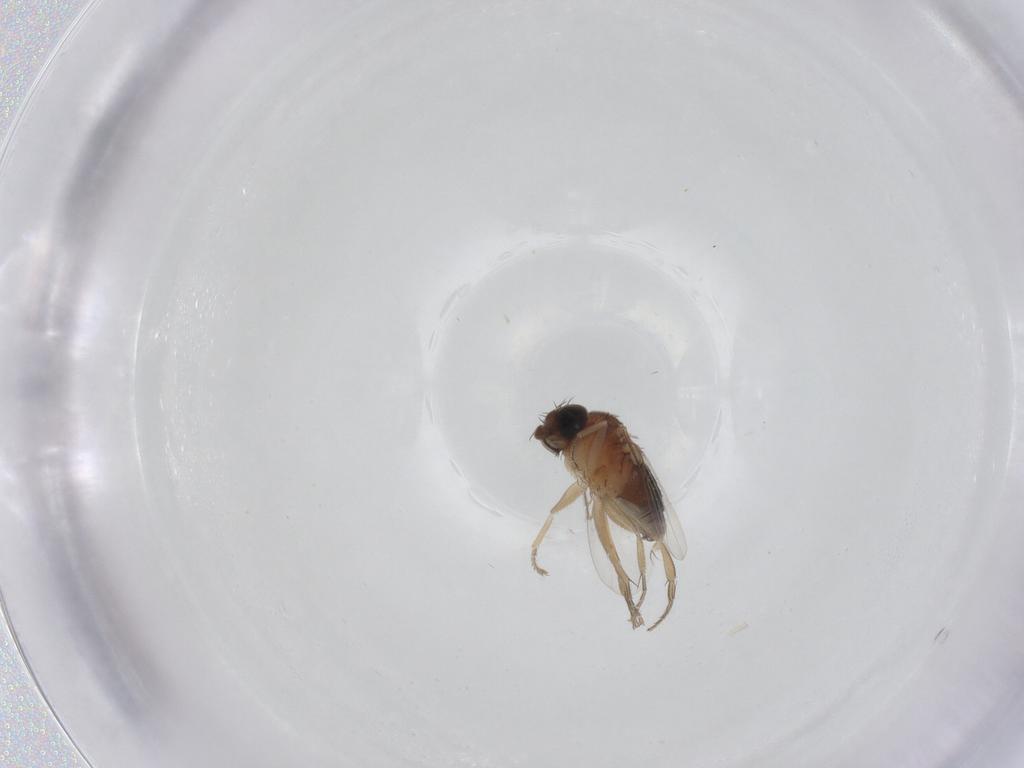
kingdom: Animalia
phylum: Arthropoda
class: Insecta
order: Diptera
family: Phoridae
